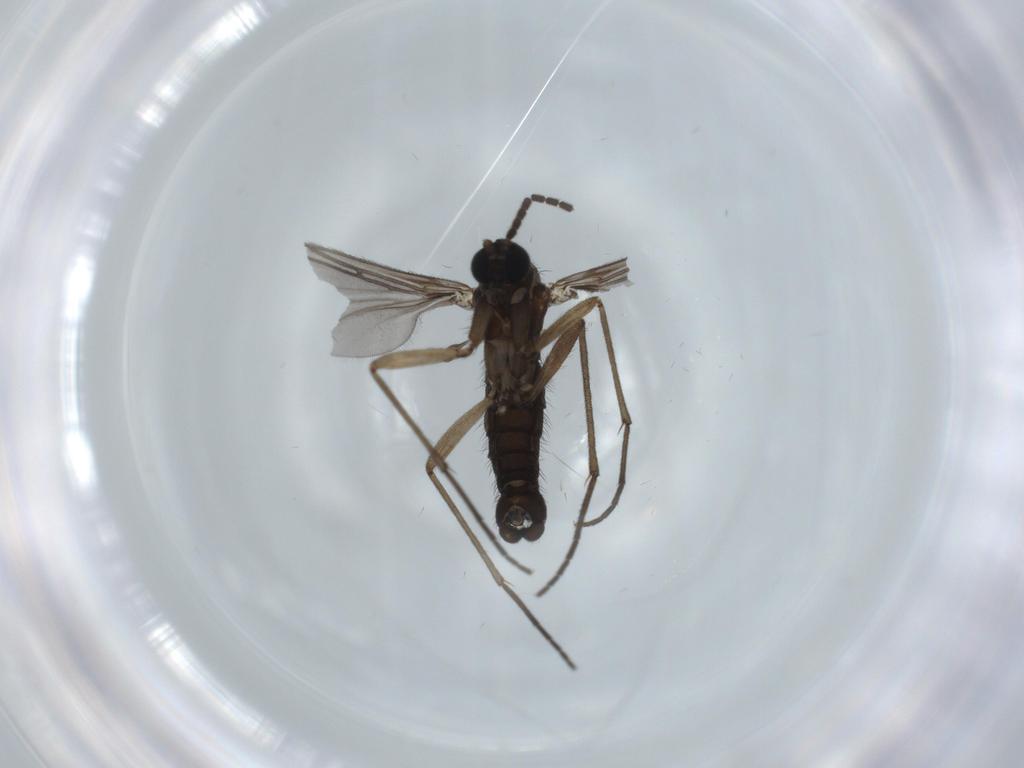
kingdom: Animalia
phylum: Arthropoda
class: Insecta
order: Diptera
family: Sciaridae
